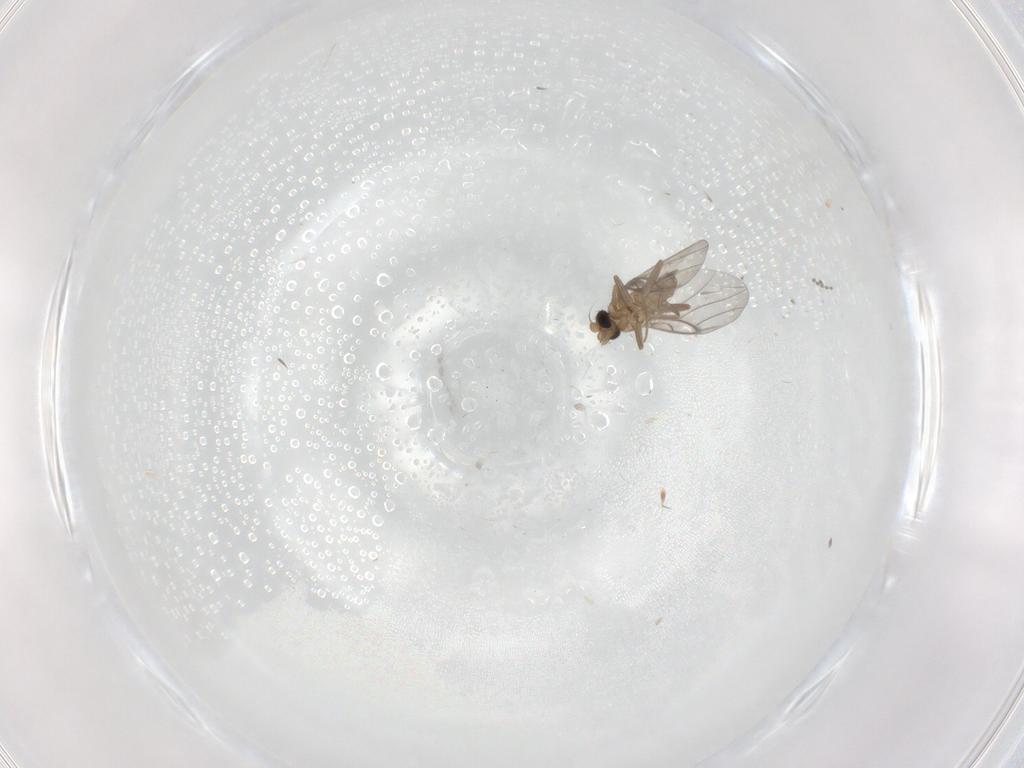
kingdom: Animalia
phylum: Arthropoda
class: Insecta
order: Diptera
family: Cecidomyiidae
